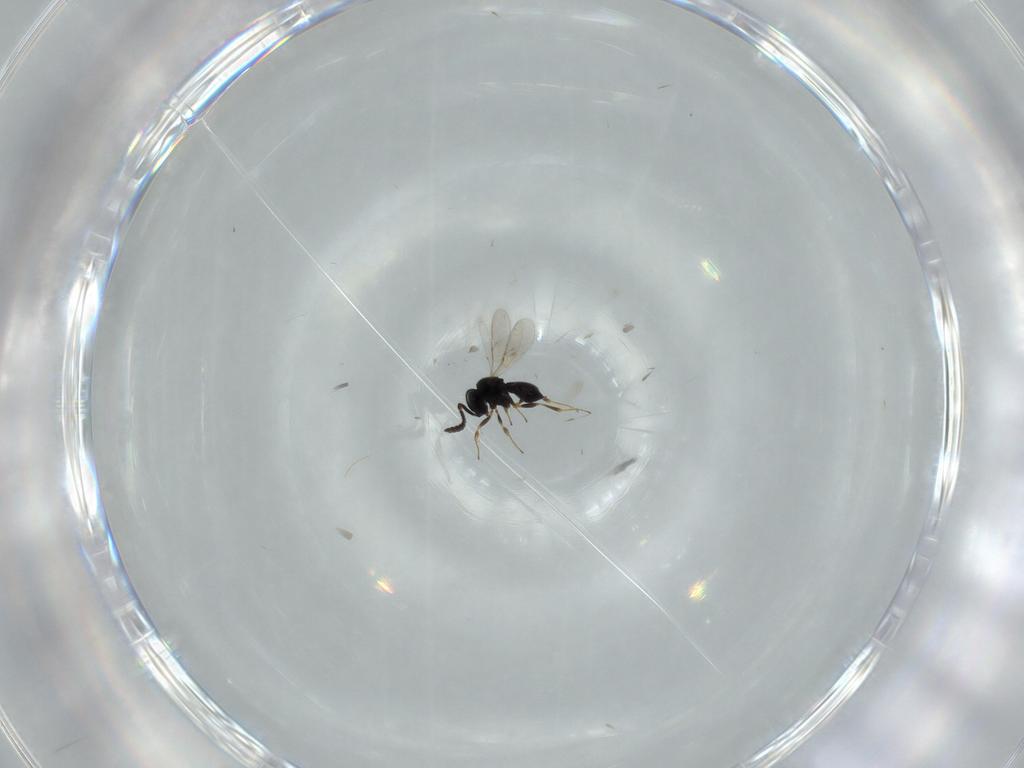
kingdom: Animalia
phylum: Arthropoda
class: Insecta
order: Hymenoptera
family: Scelionidae
